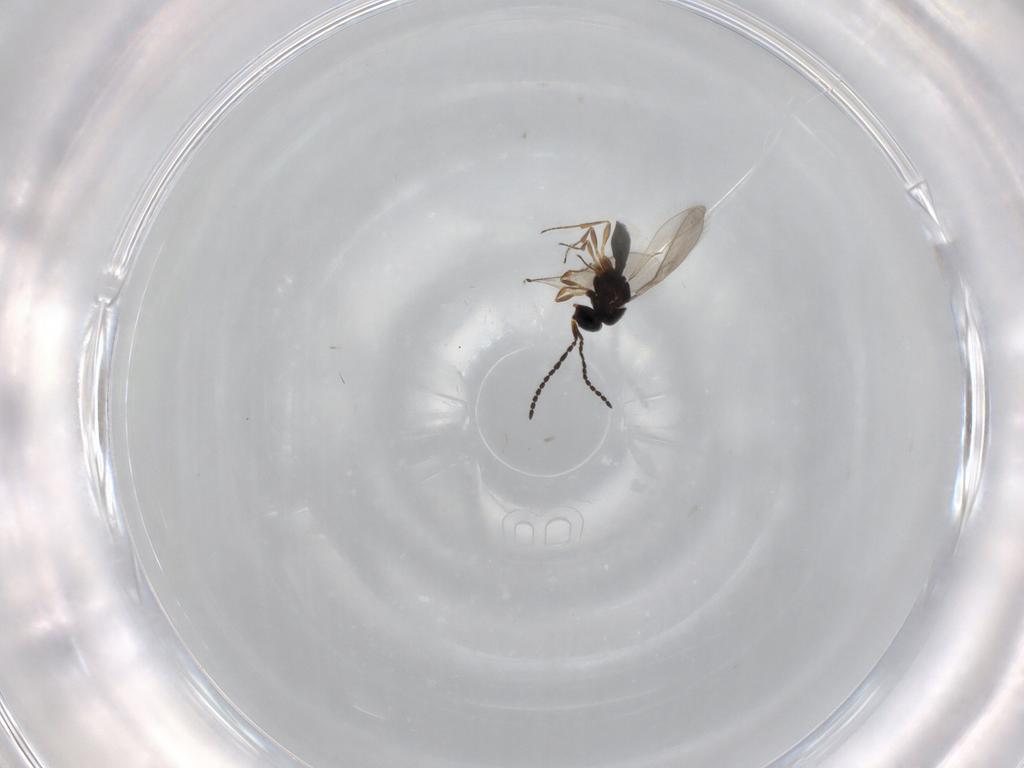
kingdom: Animalia
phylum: Arthropoda
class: Insecta
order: Hymenoptera
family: Scelionidae
